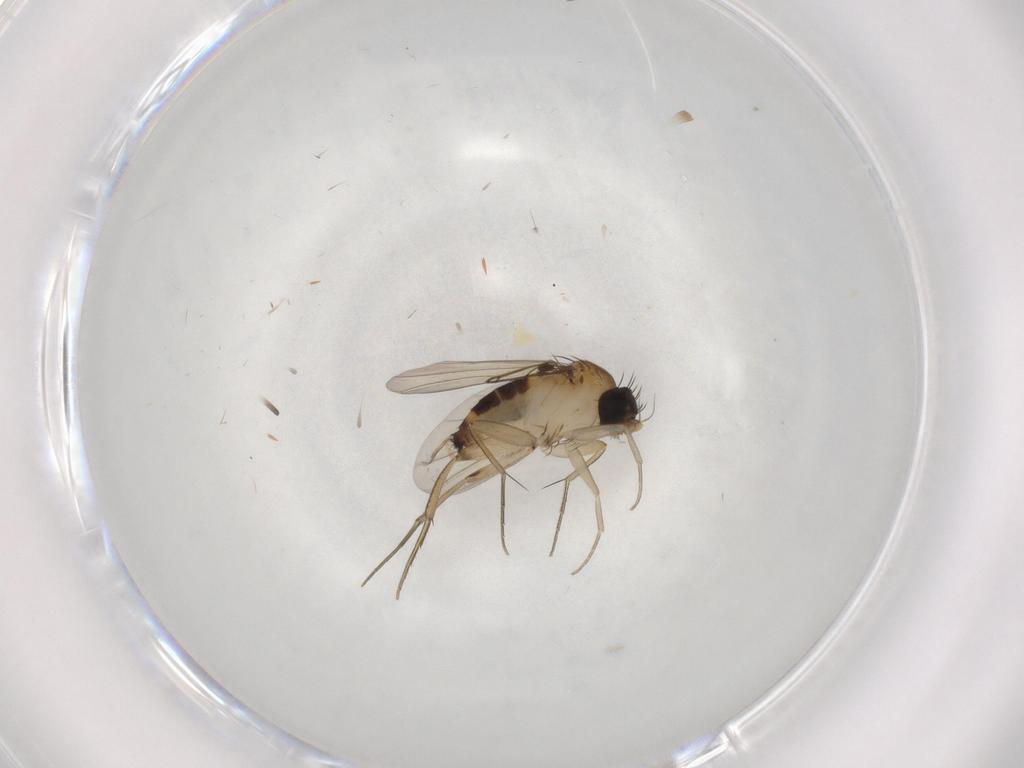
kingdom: Animalia
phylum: Arthropoda
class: Insecta
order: Diptera
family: Phoridae
